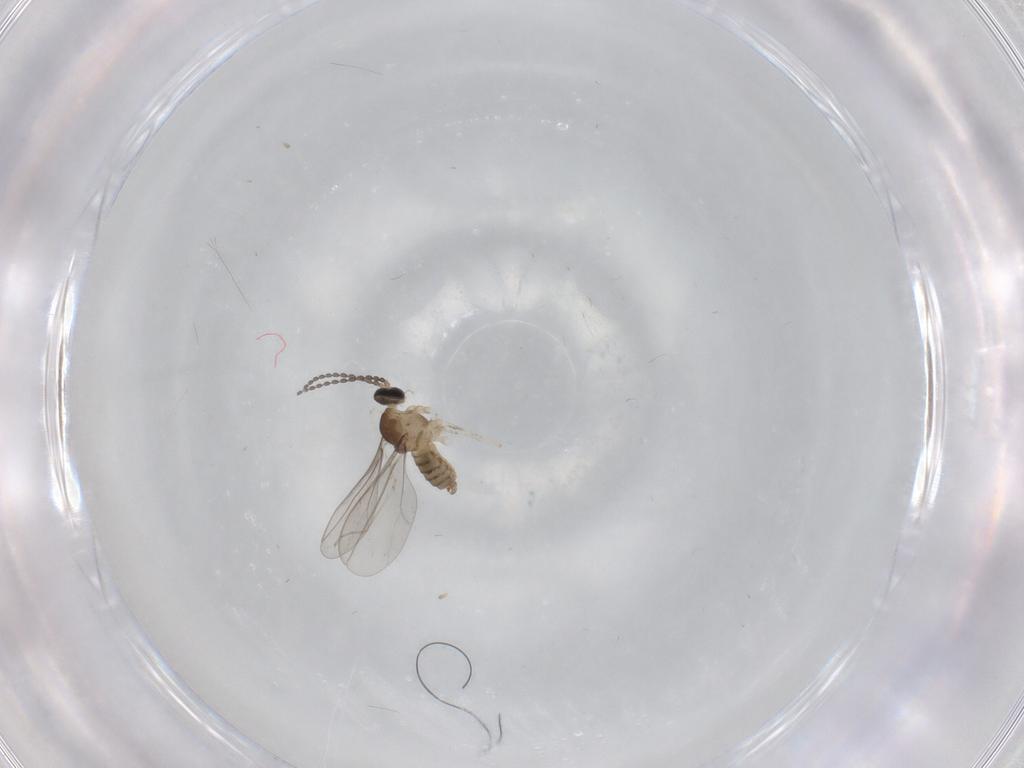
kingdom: Animalia
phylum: Arthropoda
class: Insecta
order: Diptera
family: Cecidomyiidae
